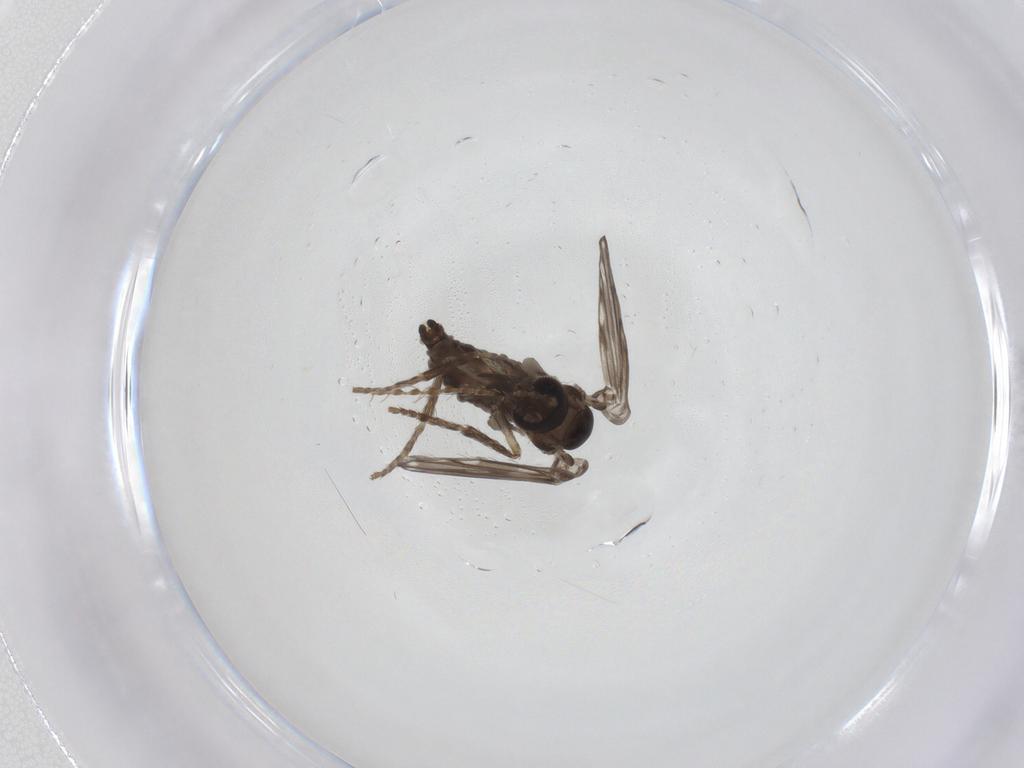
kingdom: Animalia
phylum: Arthropoda
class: Insecta
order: Diptera
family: Psychodidae
